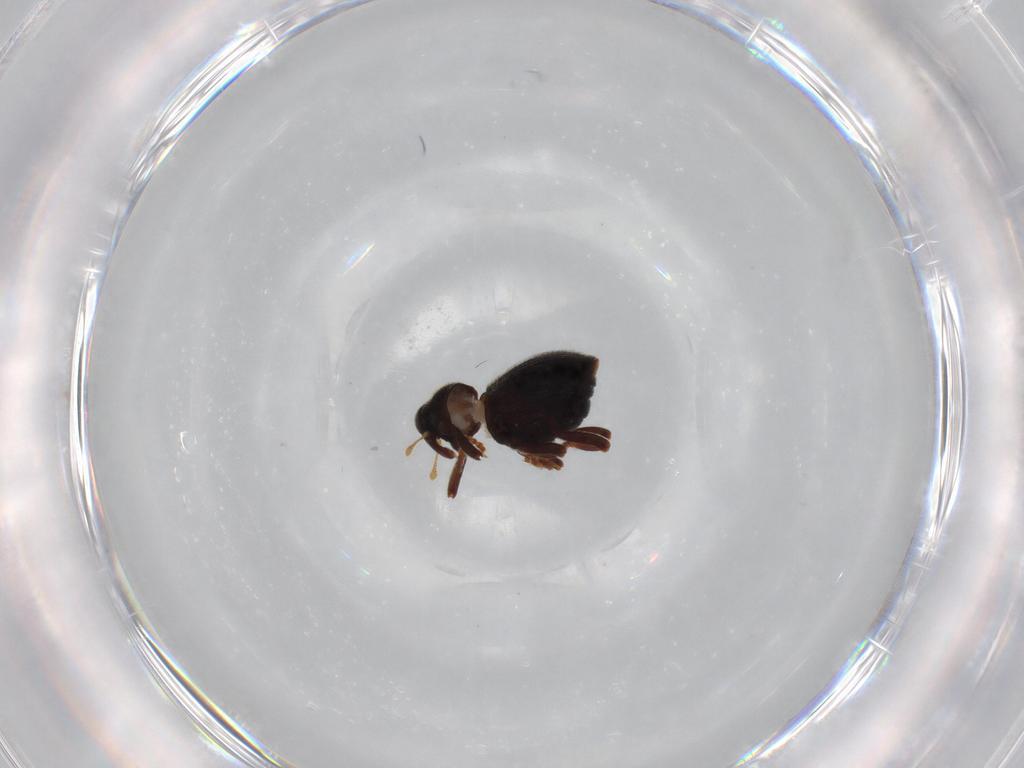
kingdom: Animalia
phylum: Arthropoda
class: Insecta
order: Coleoptera
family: Curculionidae
